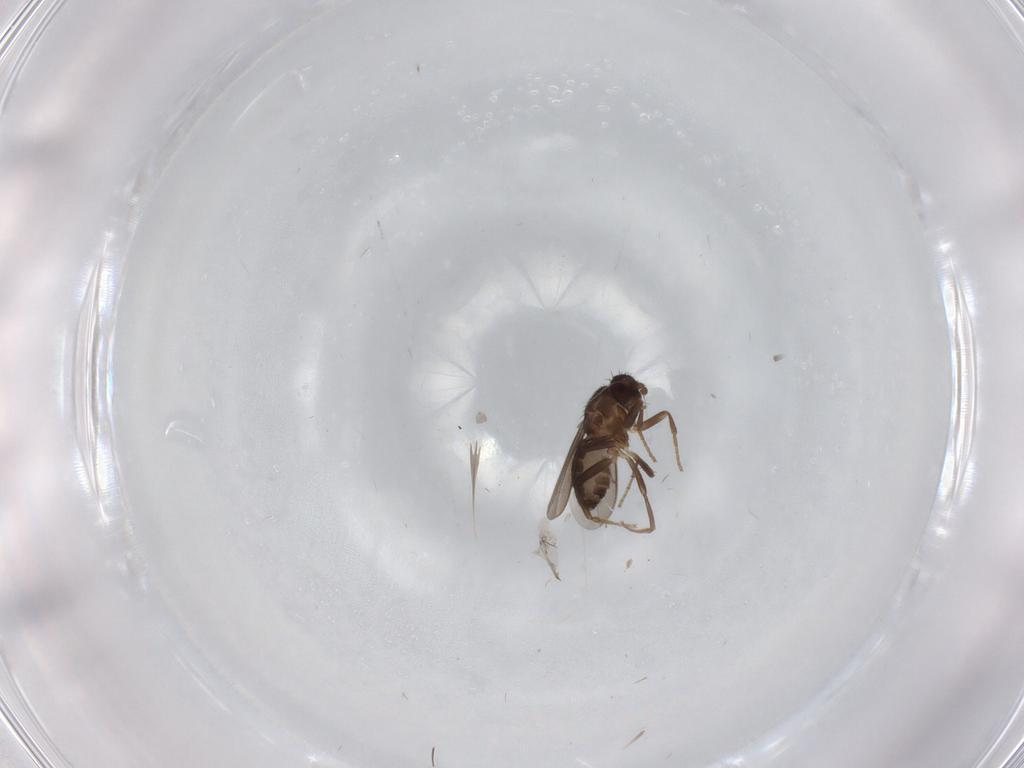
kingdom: Animalia
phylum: Arthropoda
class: Insecta
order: Diptera
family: Sphaeroceridae
